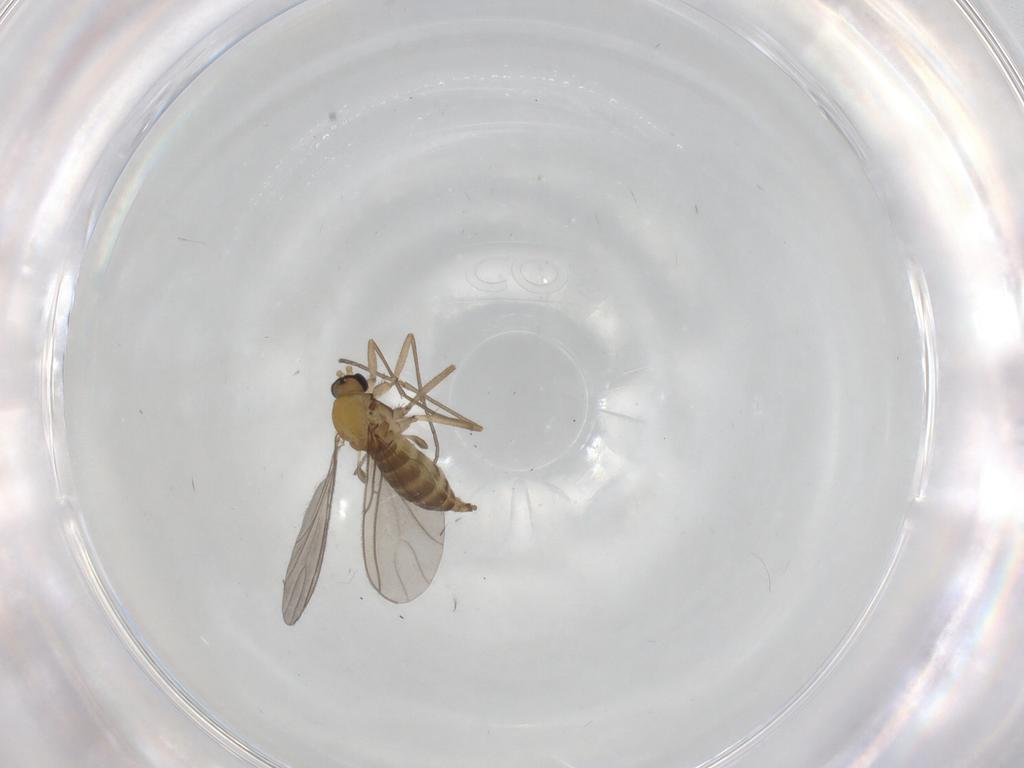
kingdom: Animalia
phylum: Arthropoda
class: Insecta
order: Diptera
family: Sciaridae
